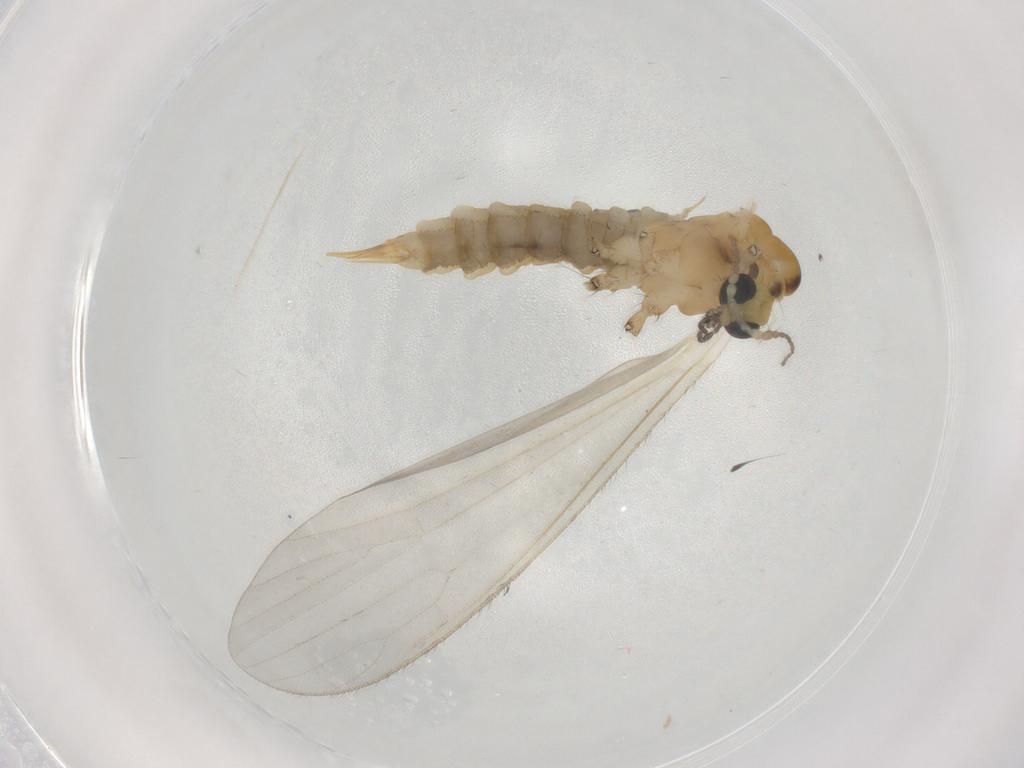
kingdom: Animalia
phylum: Arthropoda
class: Insecta
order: Diptera
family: Limoniidae
